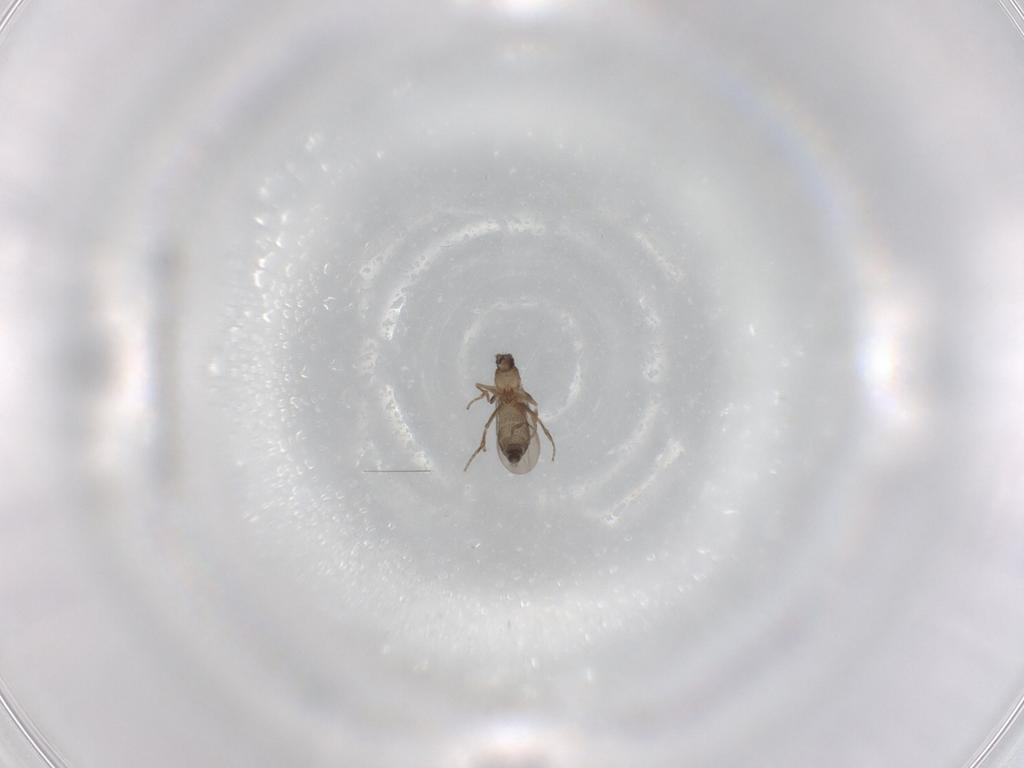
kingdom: Animalia
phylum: Arthropoda
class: Insecta
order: Diptera
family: Phoridae
